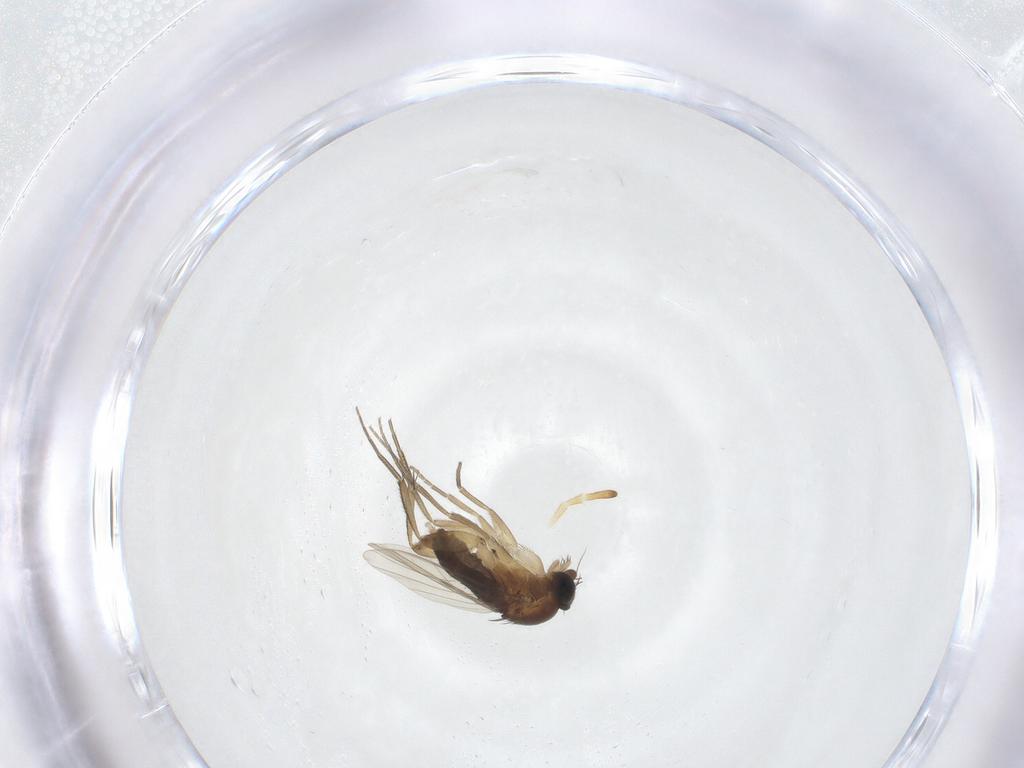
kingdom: Animalia
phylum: Arthropoda
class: Insecta
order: Diptera
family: Phoridae
